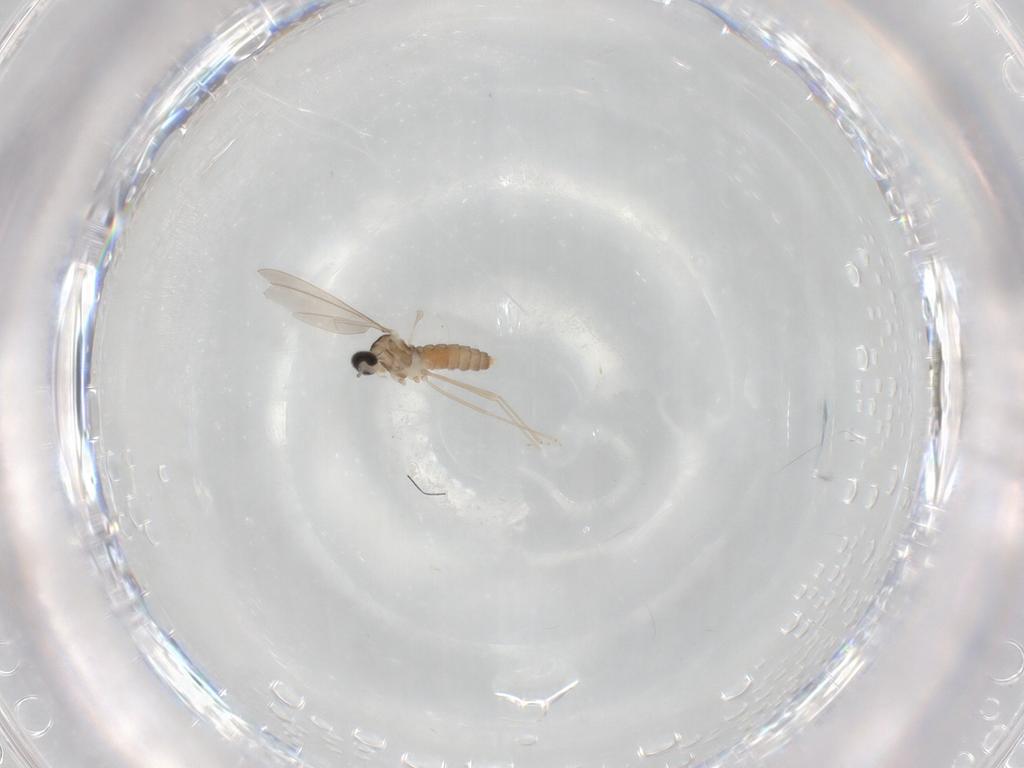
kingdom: Animalia
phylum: Arthropoda
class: Insecta
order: Diptera
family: Cecidomyiidae
